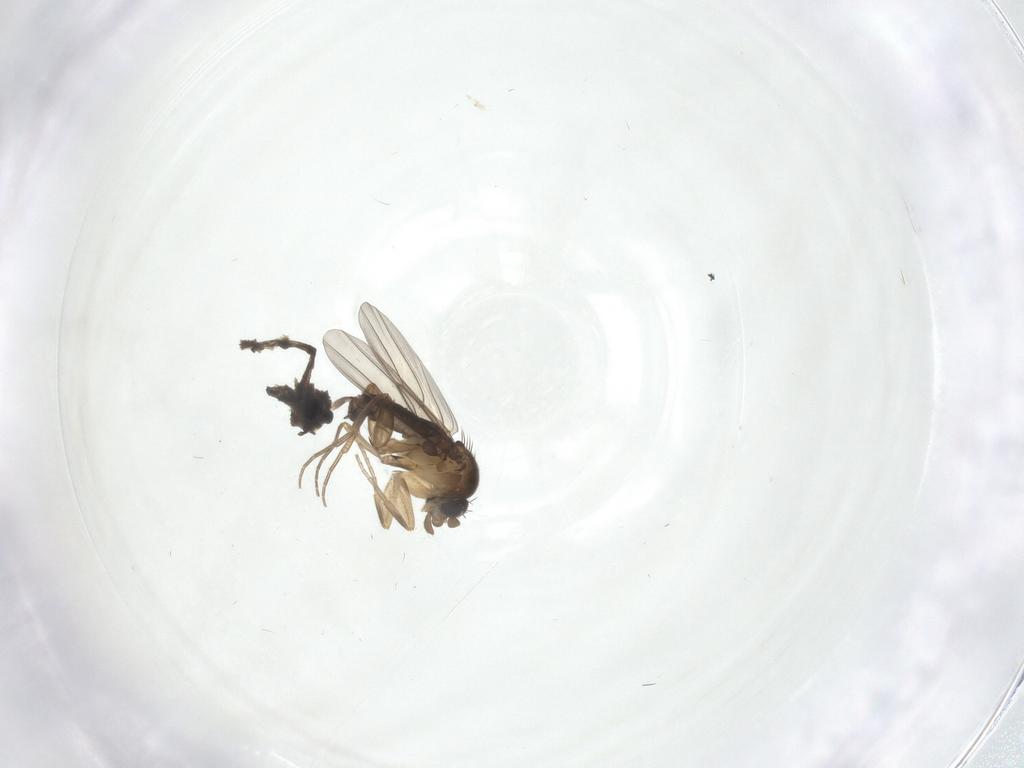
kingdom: Animalia
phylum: Arthropoda
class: Insecta
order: Diptera
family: Phoridae
